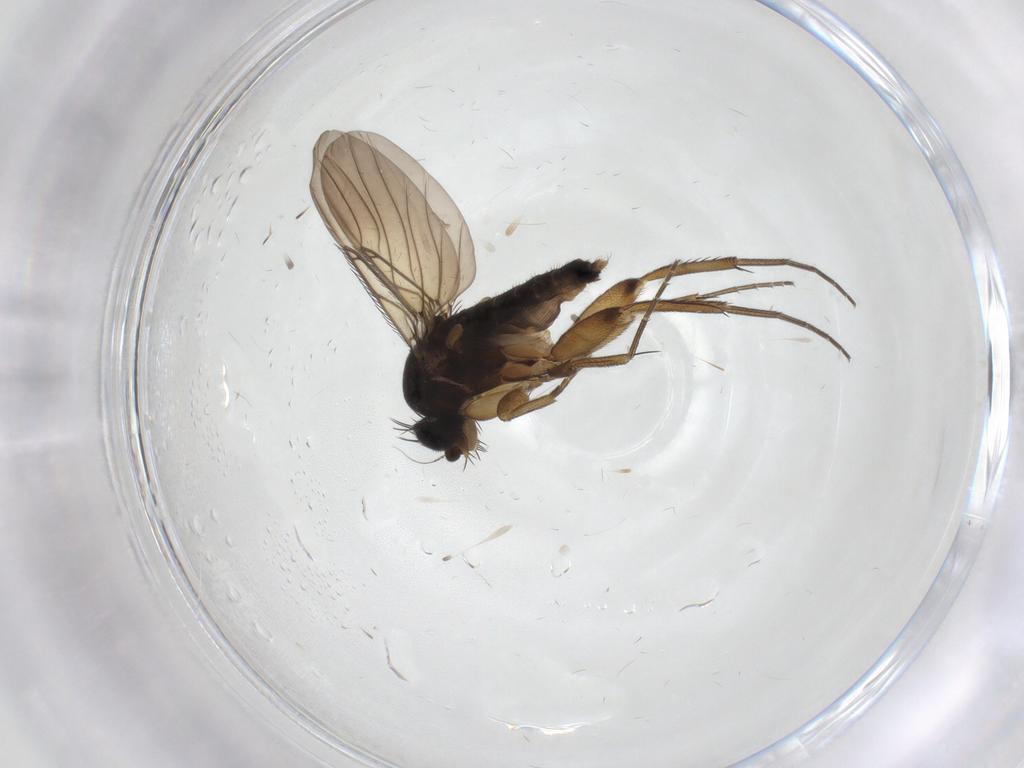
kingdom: Animalia
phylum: Arthropoda
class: Insecta
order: Diptera
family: Phoridae
